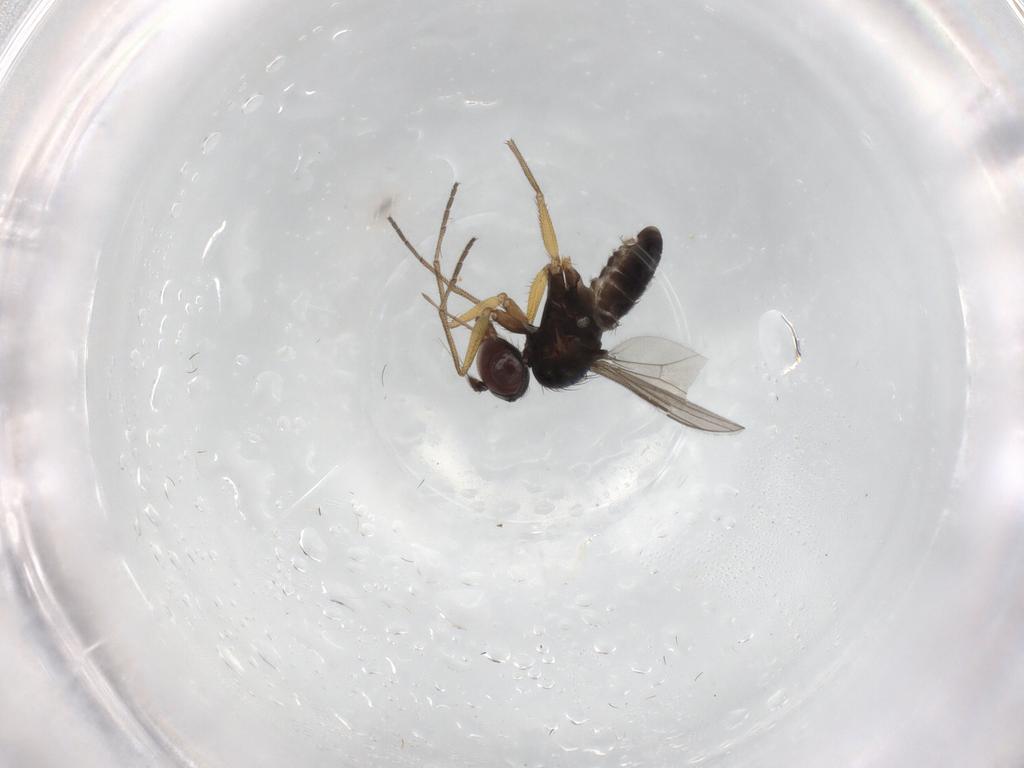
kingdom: Animalia
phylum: Arthropoda
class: Insecta
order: Diptera
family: Dolichopodidae
